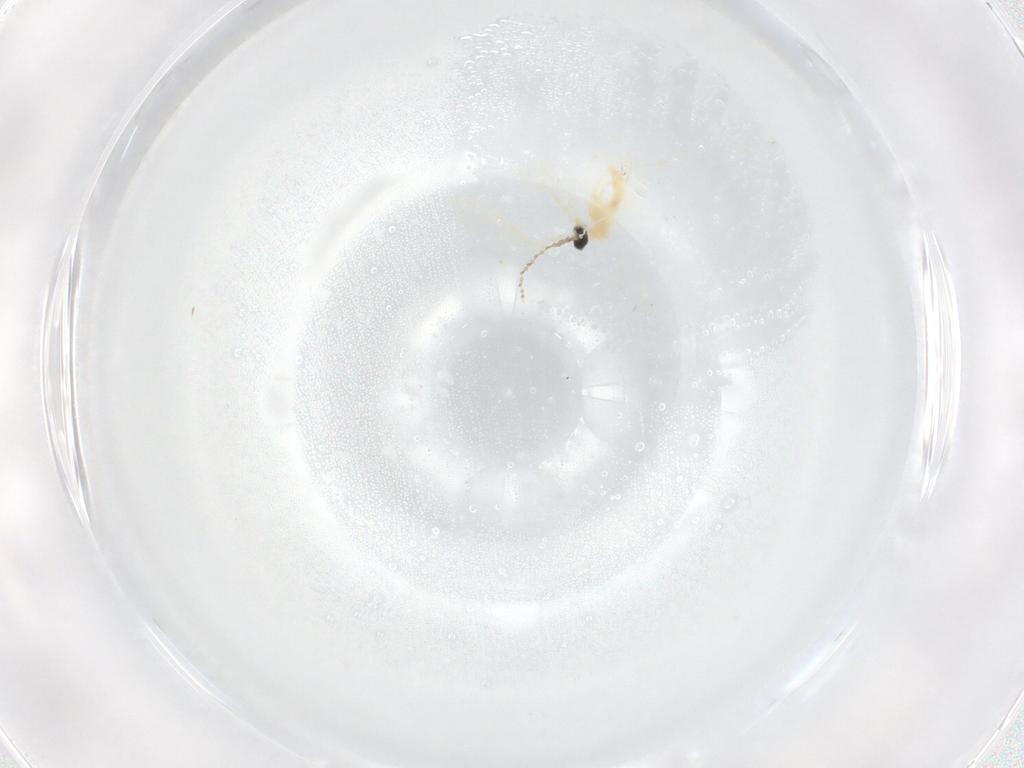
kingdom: Animalia
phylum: Arthropoda
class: Insecta
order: Diptera
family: Cecidomyiidae
